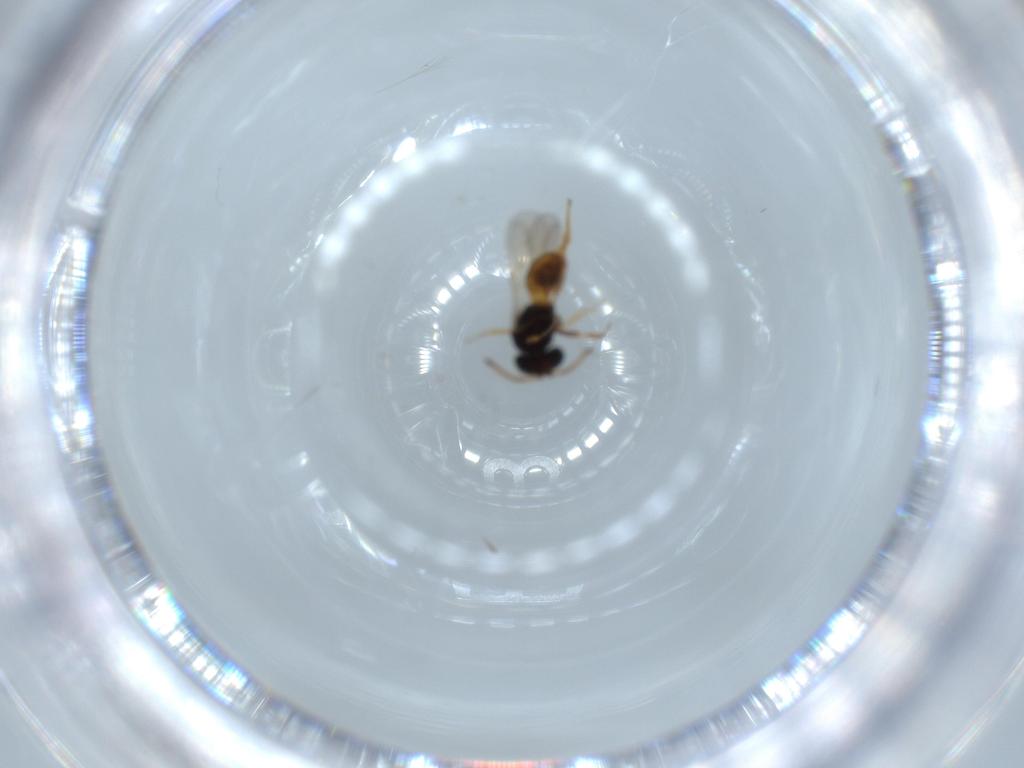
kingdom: Animalia
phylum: Arthropoda
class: Insecta
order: Hymenoptera
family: Scelionidae
